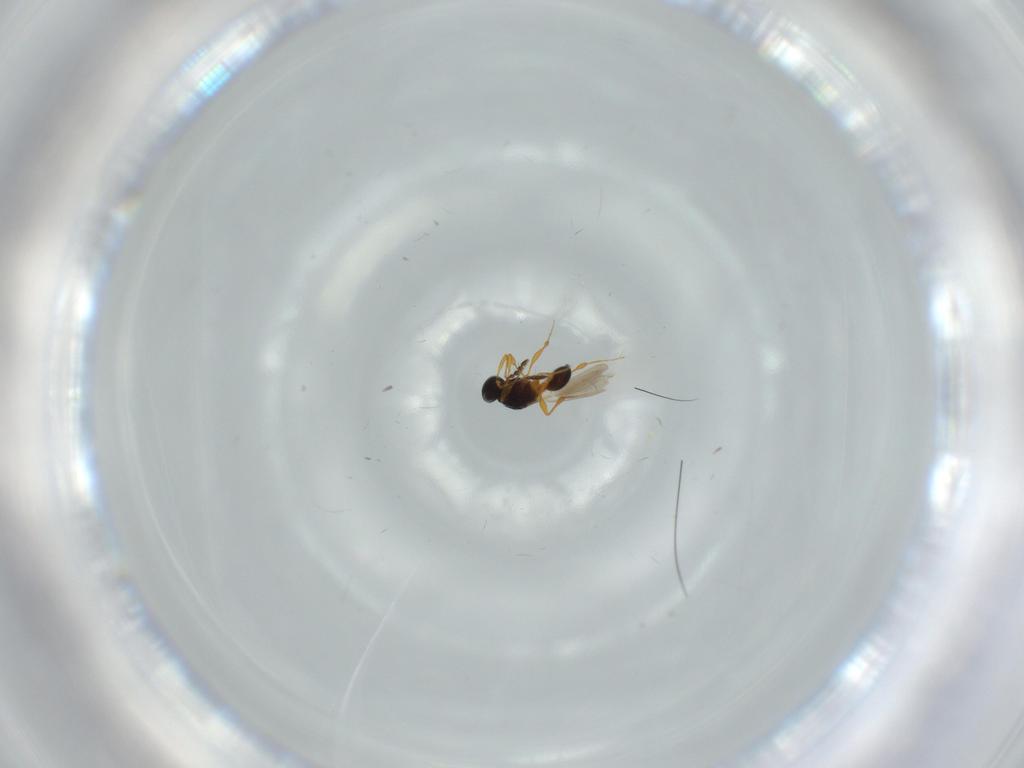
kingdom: Animalia
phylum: Arthropoda
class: Insecta
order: Hymenoptera
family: Platygastridae
